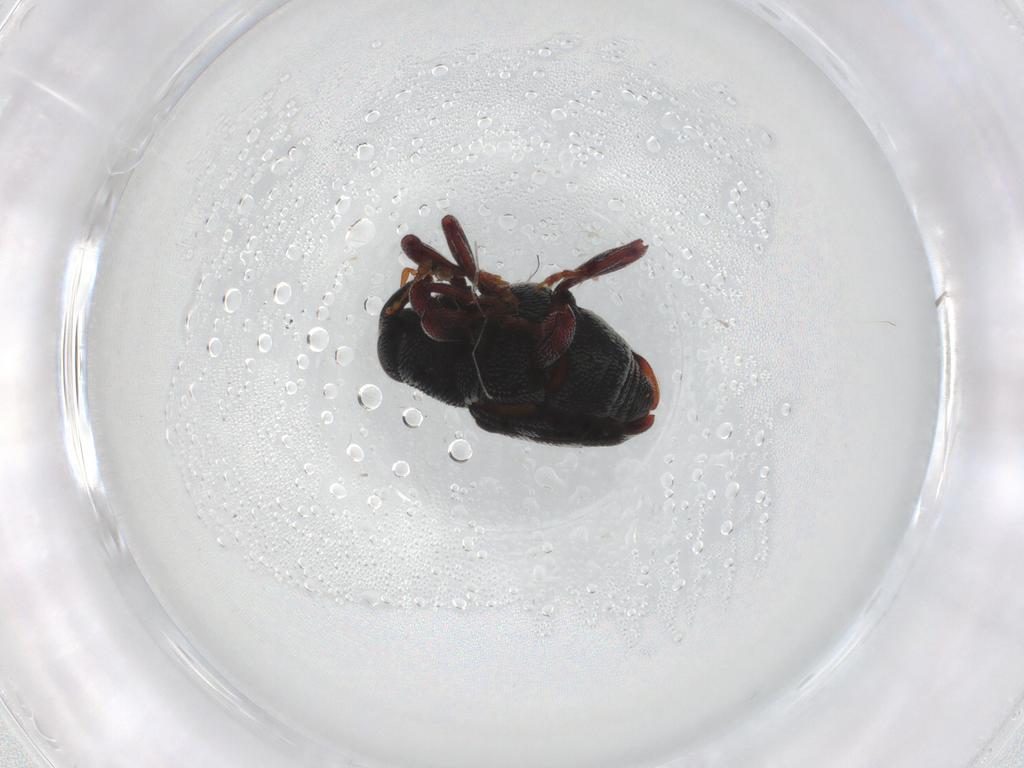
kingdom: Animalia
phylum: Arthropoda
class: Insecta
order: Coleoptera
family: Curculionidae
